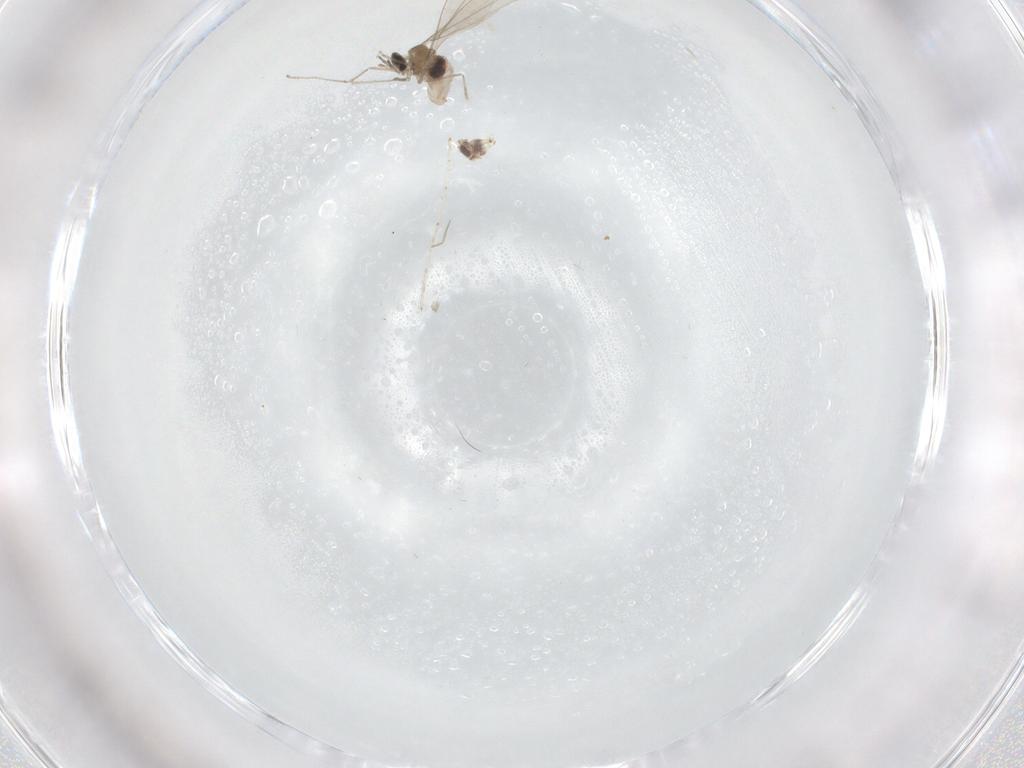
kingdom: Animalia
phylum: Arthropoda
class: Insecta
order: Diptera
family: Cecidomyiidae
